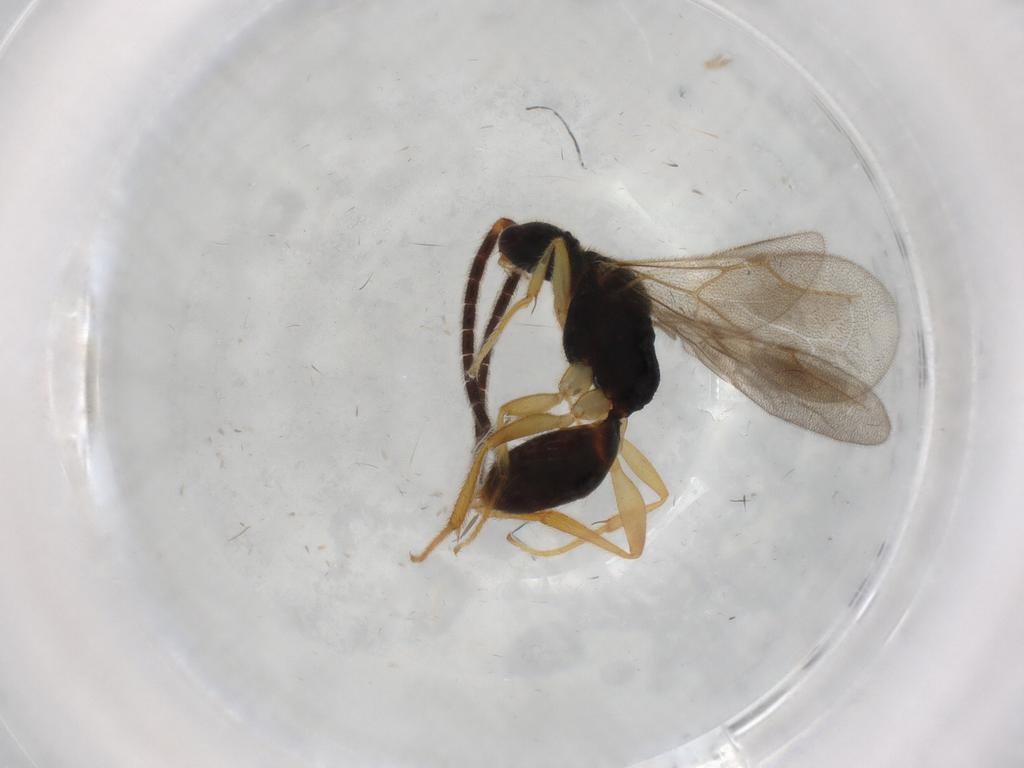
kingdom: Animalia
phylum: Arthropoda
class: Insecta
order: Hymenoptera
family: Bethylidae
